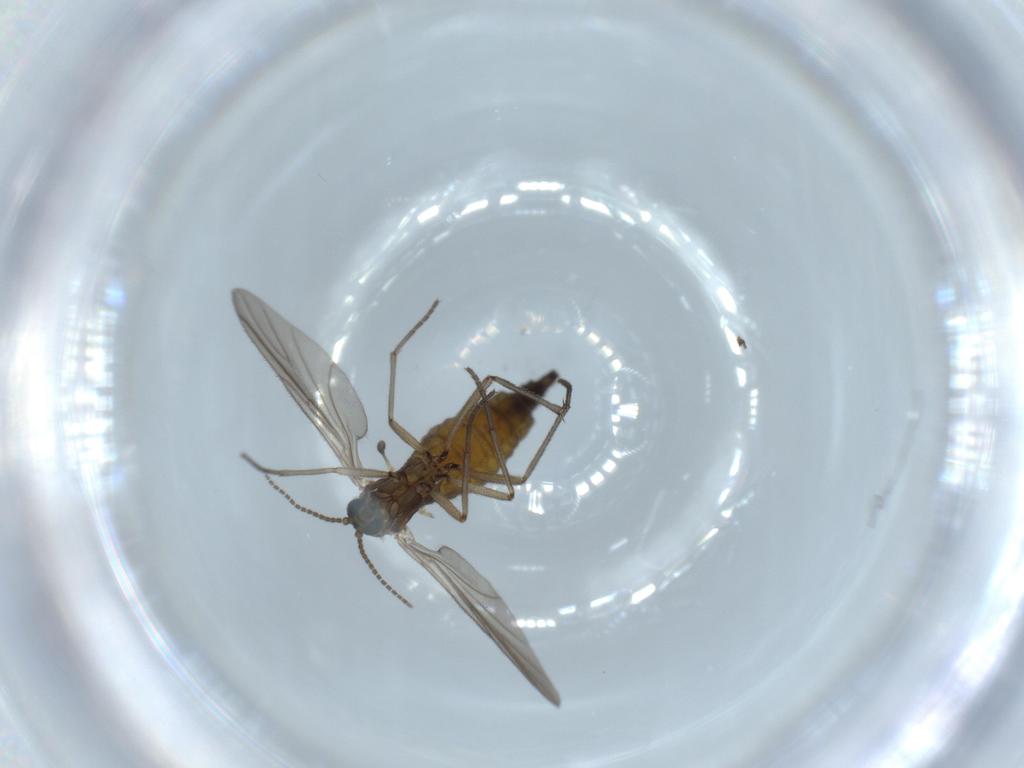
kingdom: Animalia
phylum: Arthropoda
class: Insecta
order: Diptera
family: Sciaridae
